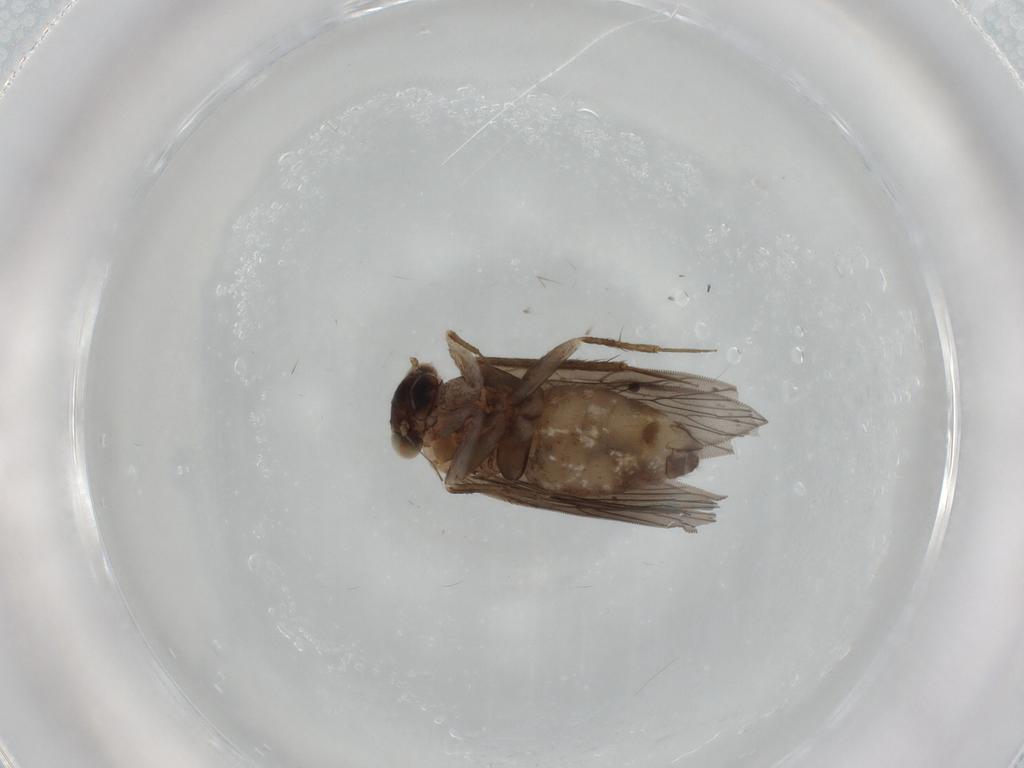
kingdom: Animalia
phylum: Arthropoda
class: Insecta
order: Psocodea
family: Lepidopsocidae
